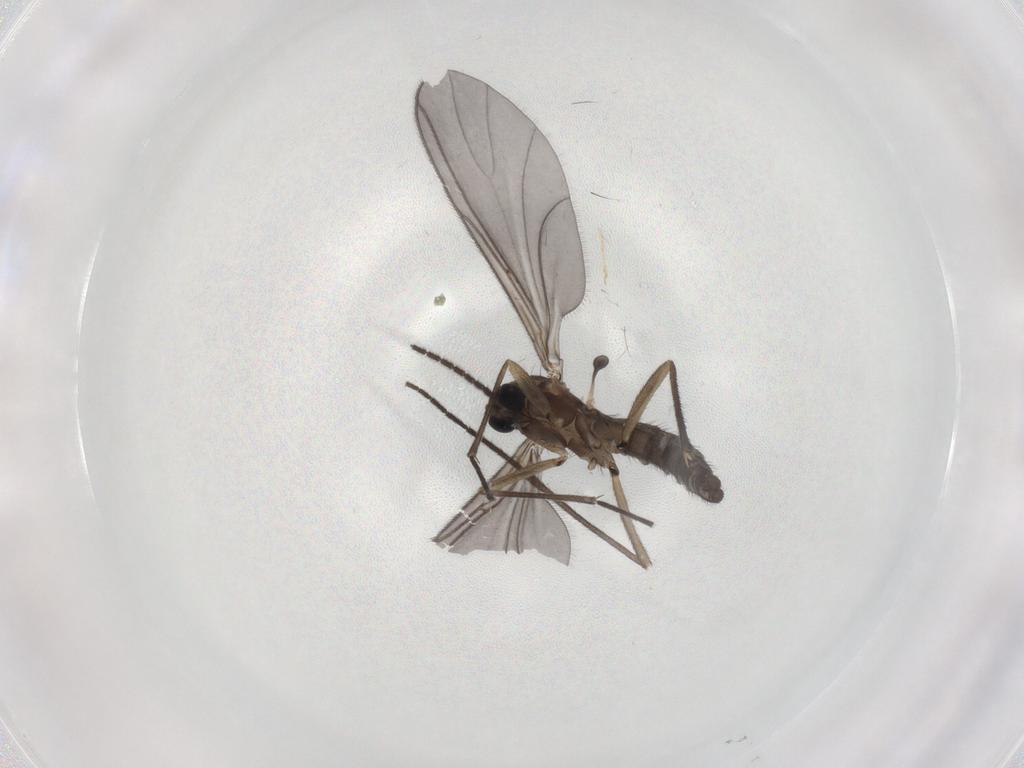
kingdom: Animalia
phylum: Arthropoda
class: Insecta
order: Diptera
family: Phoridae
